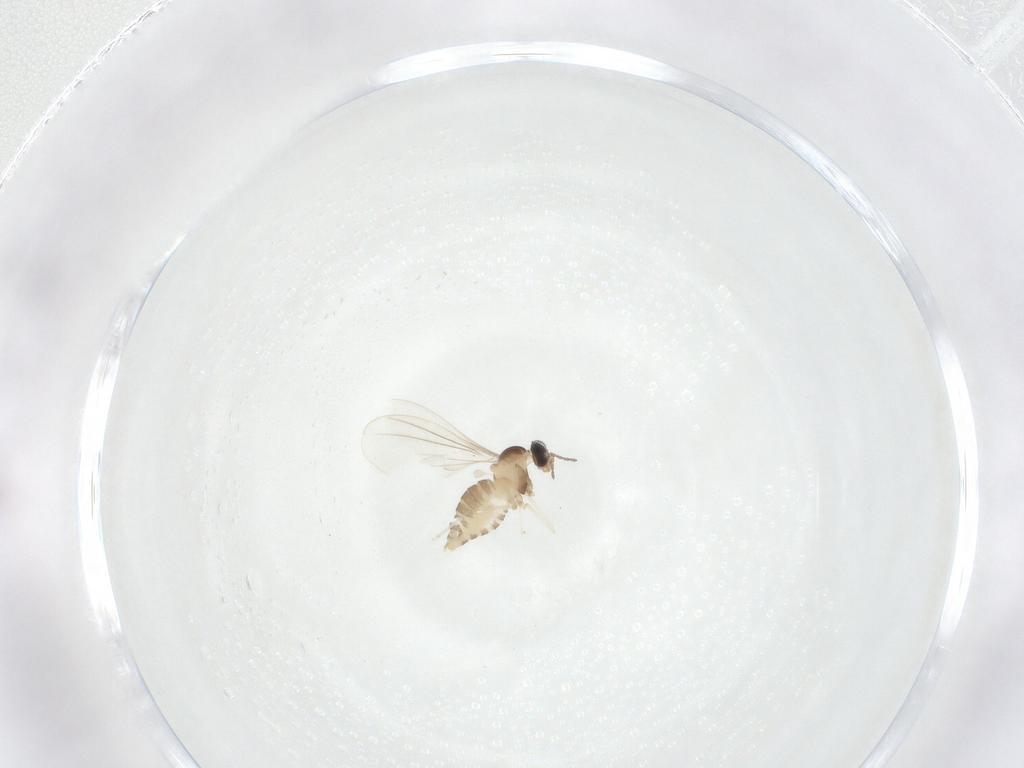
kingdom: Animalia
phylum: Arthropoda
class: Insecta
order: Diptera
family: Cecidomyiidae
